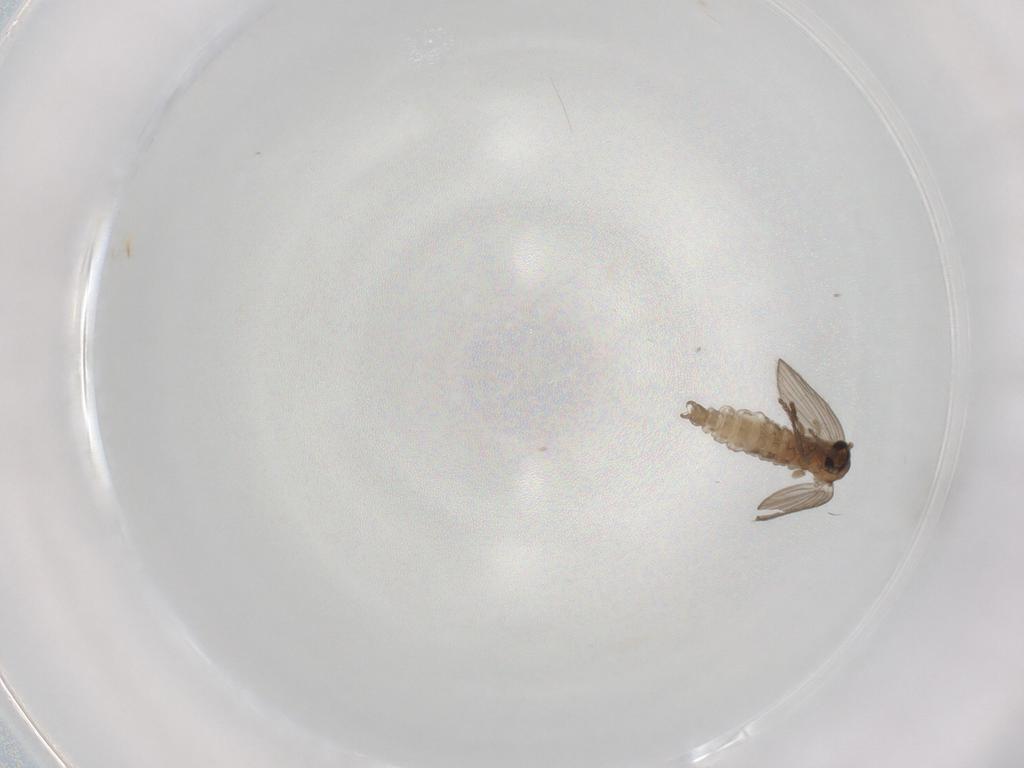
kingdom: Animalia
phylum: Arthropoda
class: Insecta
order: Diptera
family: Psychodidae
